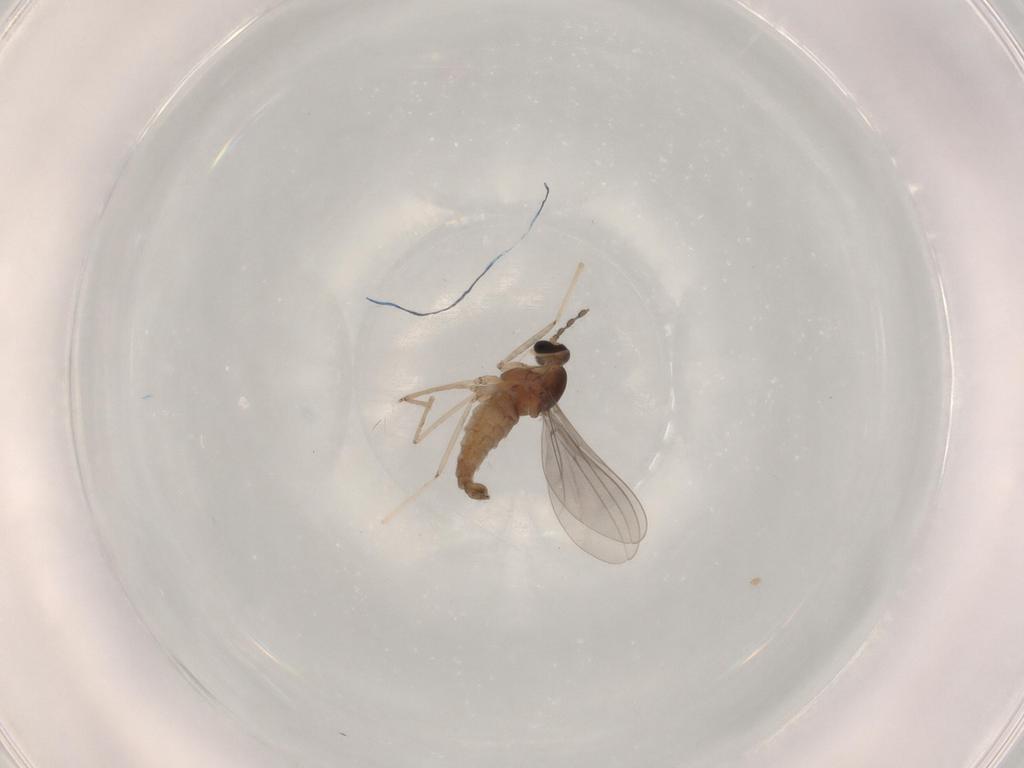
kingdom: Animalia
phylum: Arthropoda
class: Insecta
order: Diptera
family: Cecidomyiidae
